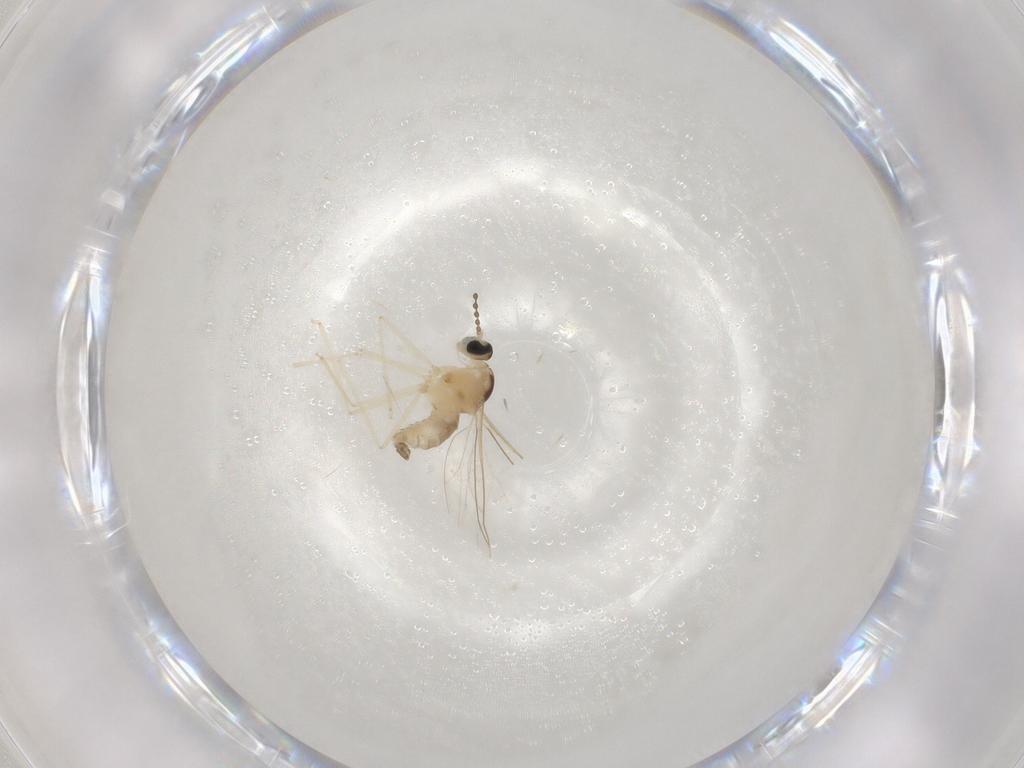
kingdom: Animalia
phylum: Arthropoda
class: Insecta
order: Diptera
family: Cecidomyiidae
